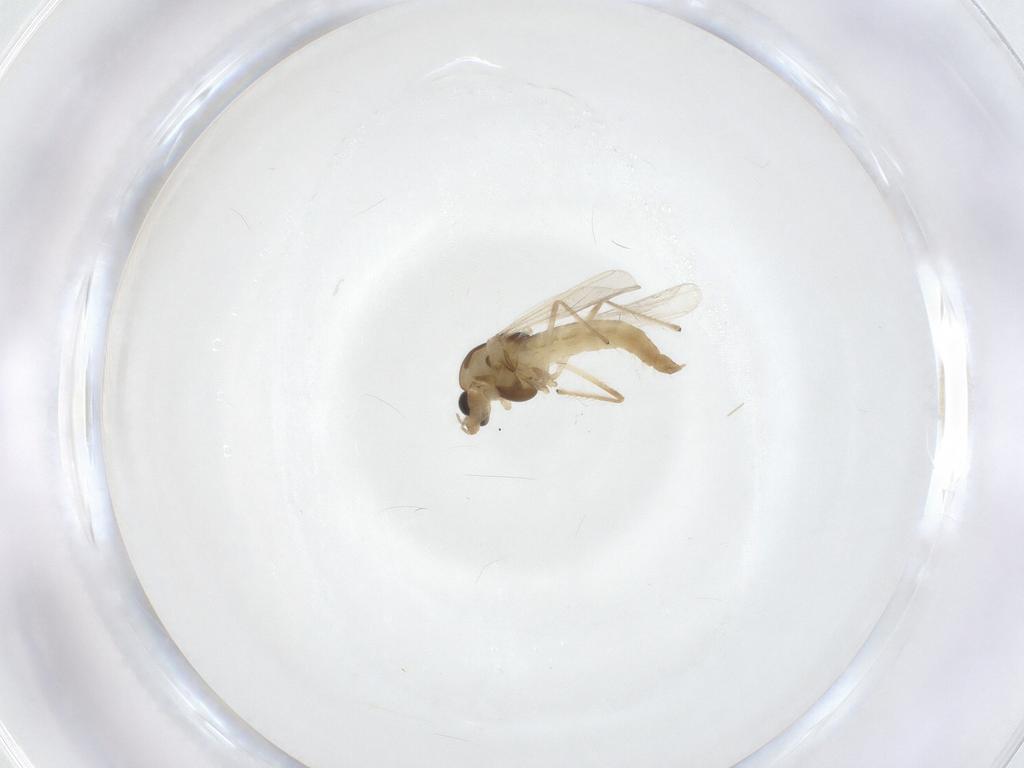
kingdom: Animalia
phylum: Arthropoda
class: Insecta
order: Diptera
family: Chironomidae
